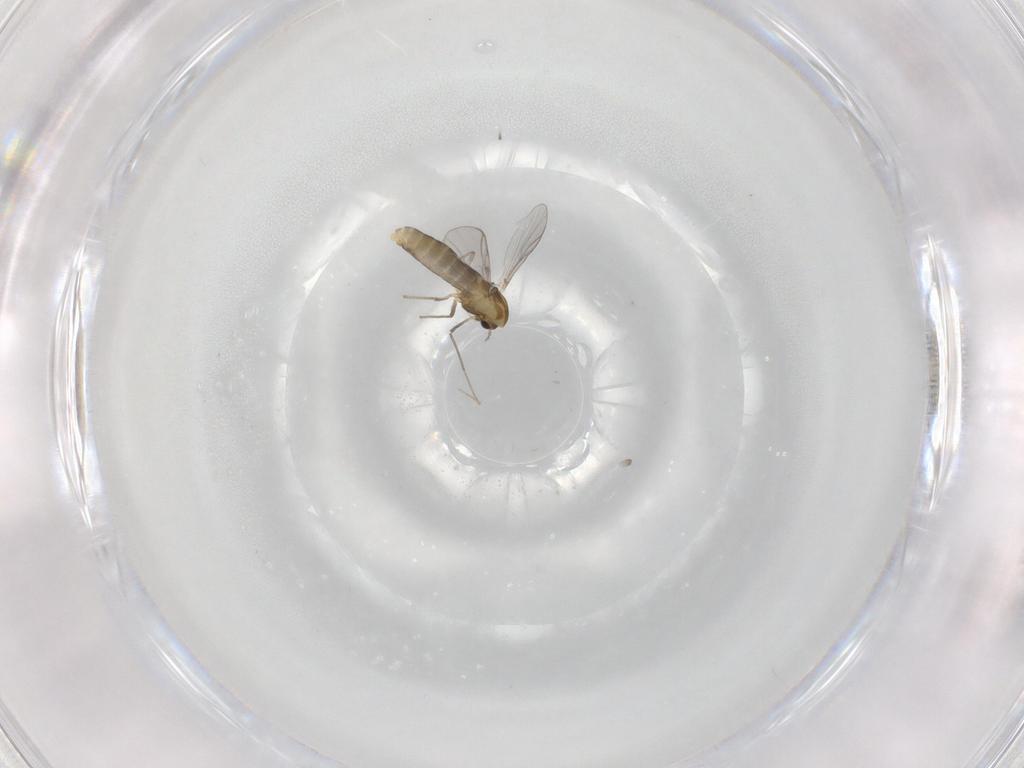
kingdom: Animalia
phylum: Arthropoda
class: Insecta
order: Diptera
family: Chironomidae
